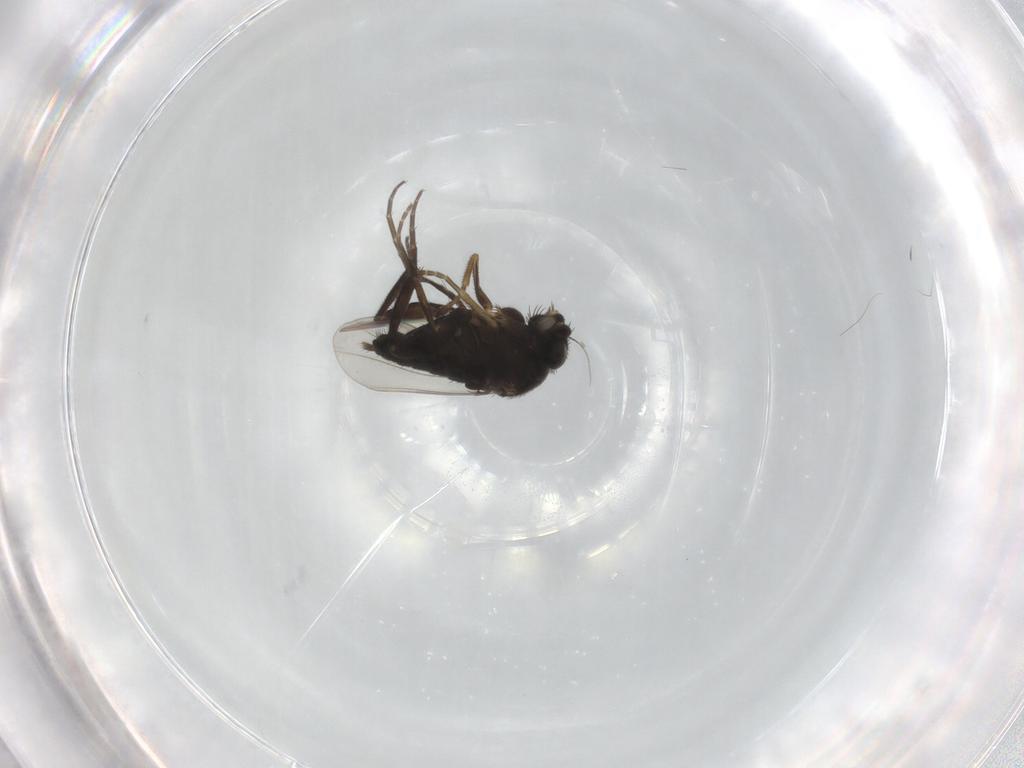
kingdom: Animalia
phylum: Arthropoda
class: Insecta
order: Diptera
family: Phoridae
